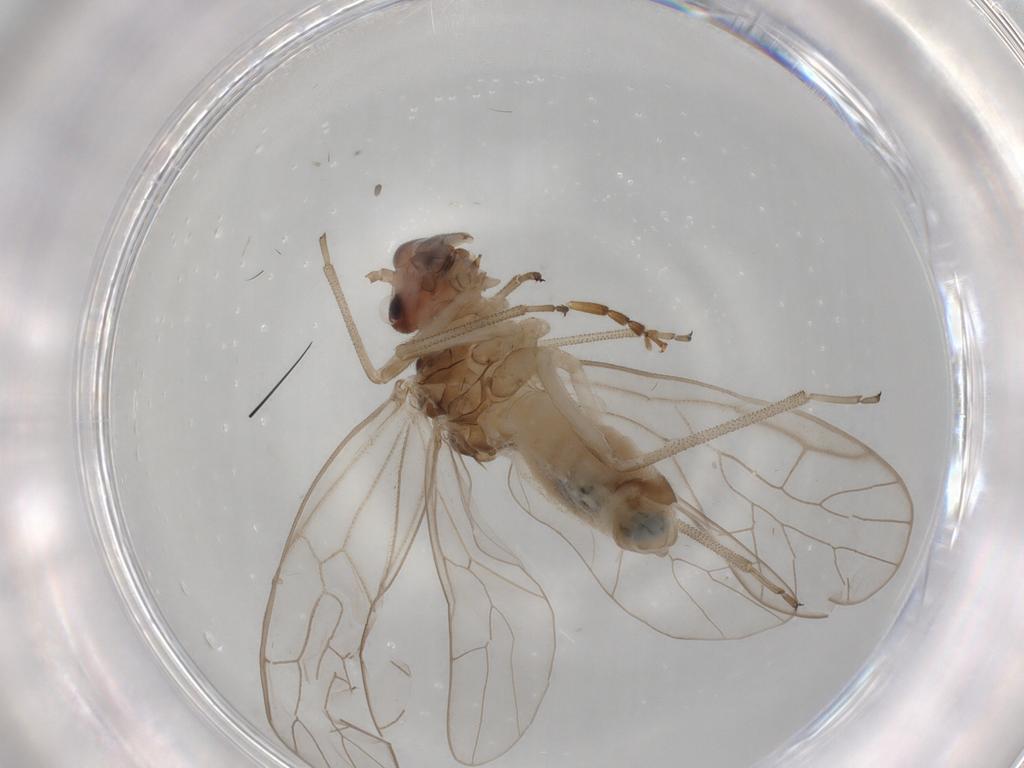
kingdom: Animalia
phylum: Arthropoda
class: Insecta
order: Psocodea
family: Stenopsocidae
